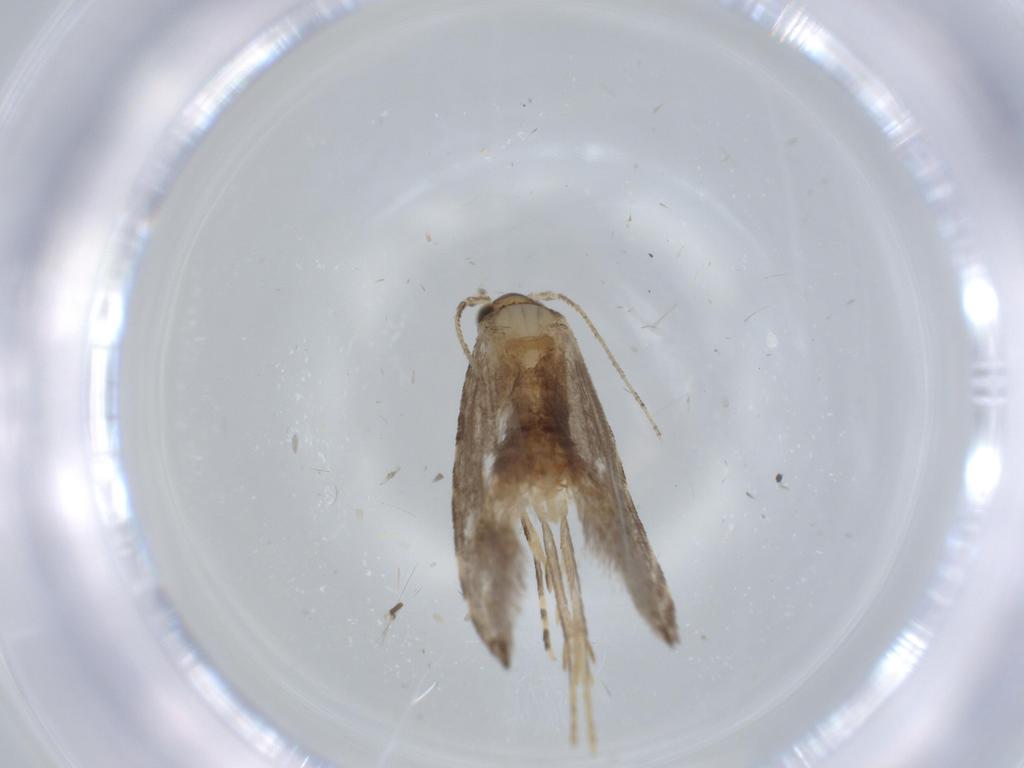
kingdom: Animalia
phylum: Arthropoda
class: Insecta
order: Lepidoptera
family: Tineidae
